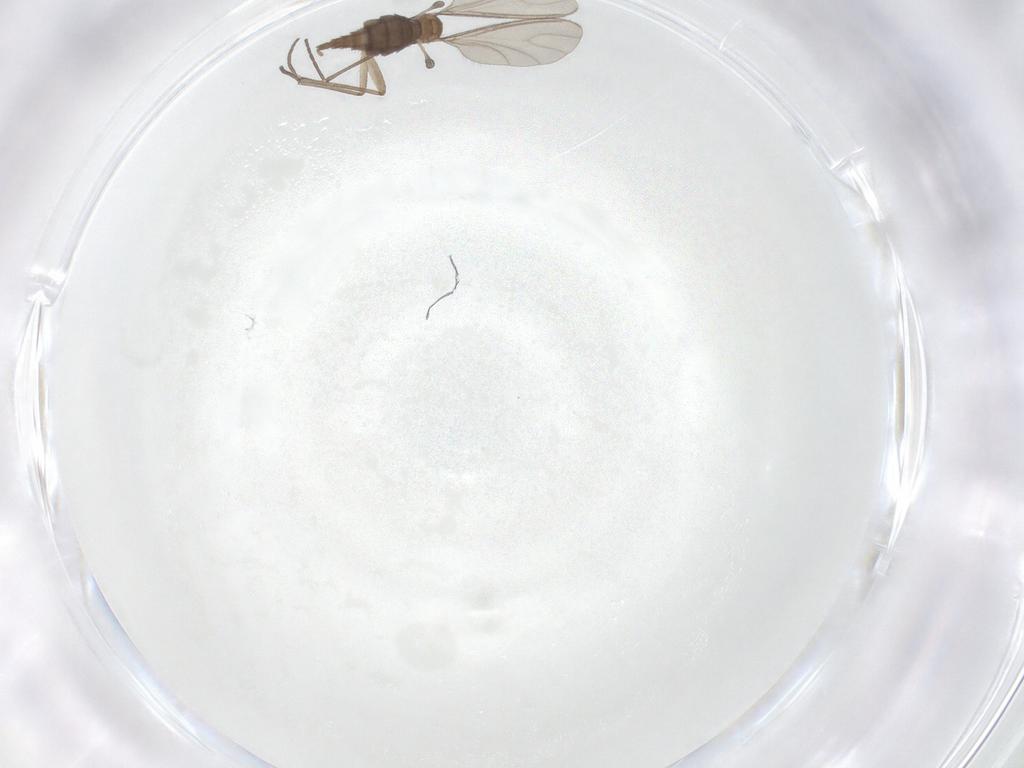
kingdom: Animalia
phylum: Arthropoda
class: Insecta
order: Diptera
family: Sciaridae
